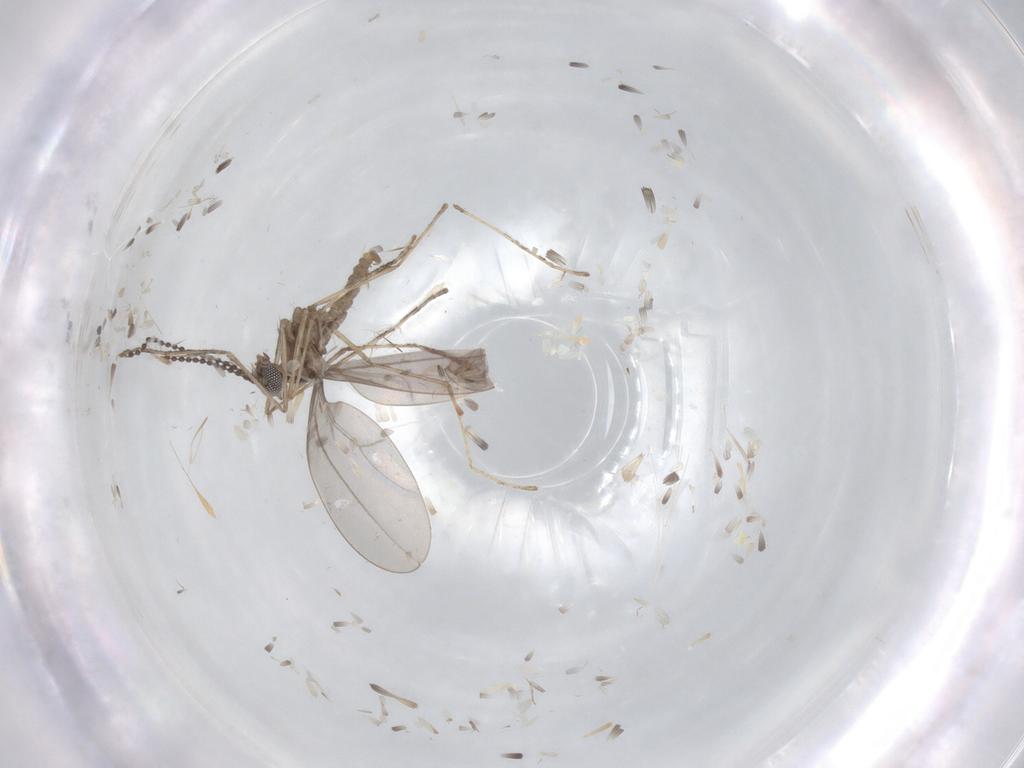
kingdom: Animalia
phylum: Arthropoda
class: Insecta
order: Diptera
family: Cecidomyiidae
